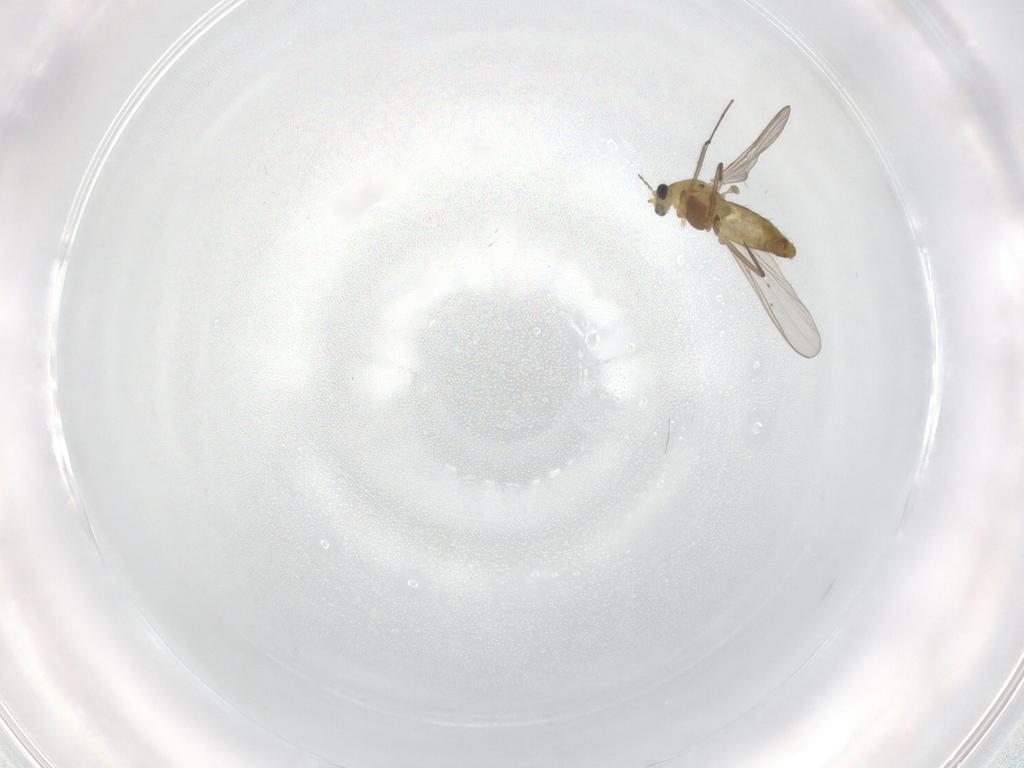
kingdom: Animalia
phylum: Arthropoda
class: Insecta
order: Diptera
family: Chironomidae
